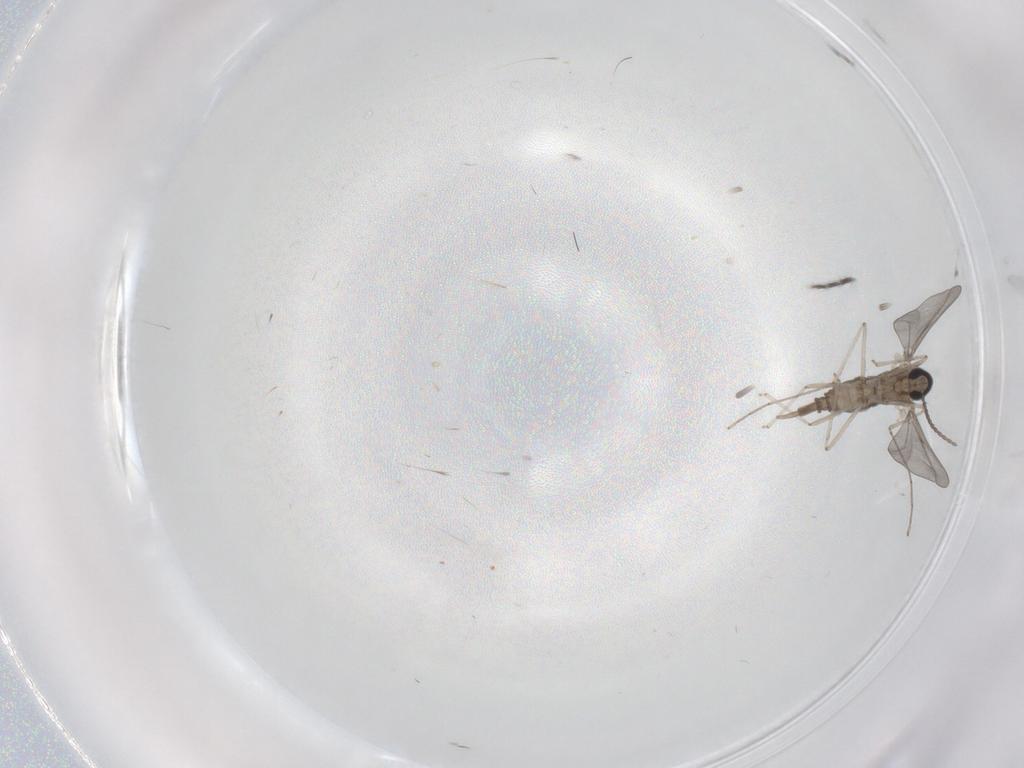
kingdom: Animalia
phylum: Arthropoda
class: Insecta
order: Diptera
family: Cecidomyiidae
